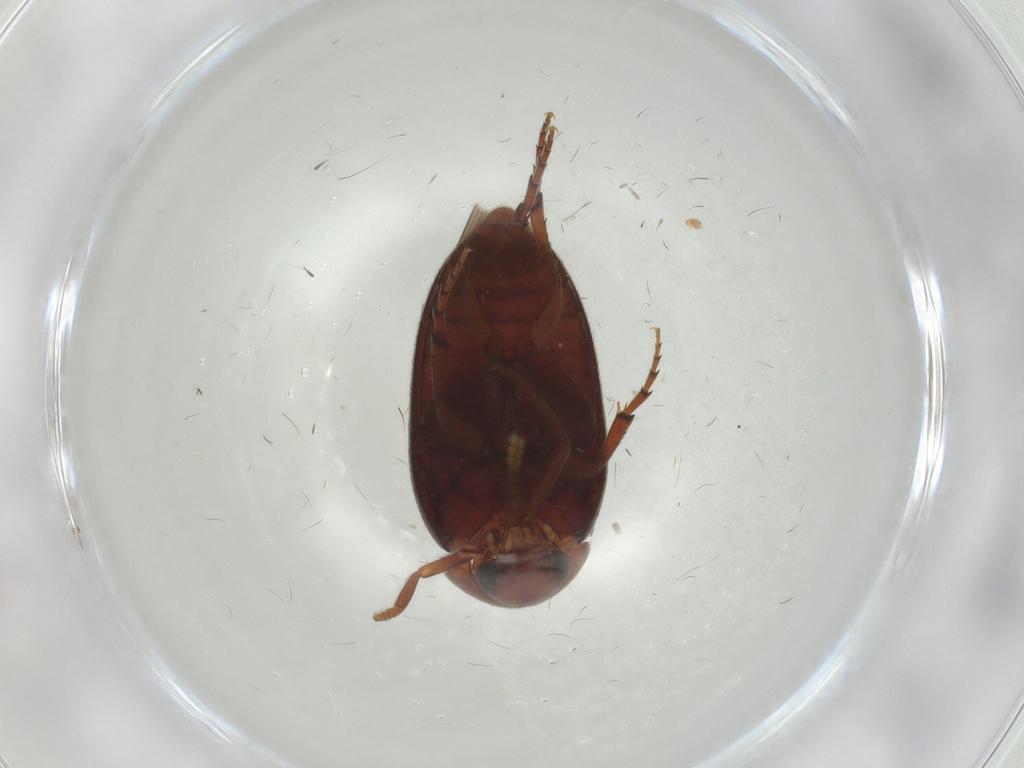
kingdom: Animalia
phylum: Arthropoda
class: Insecta
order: Coleoptera
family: Eucinetidae
